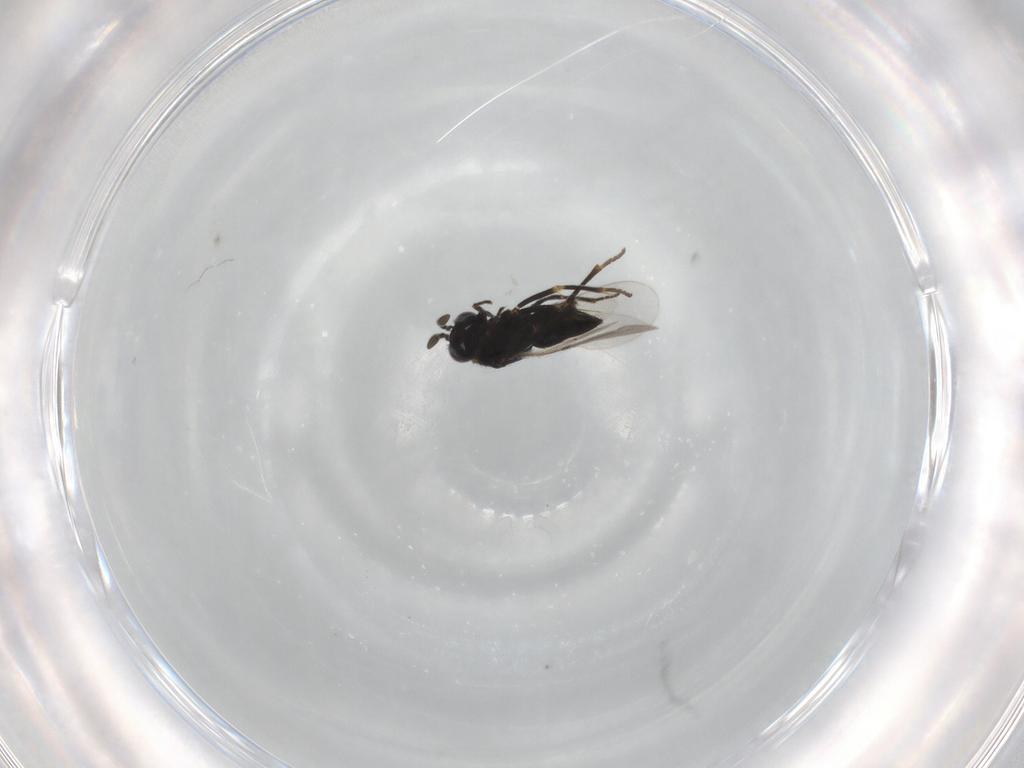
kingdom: Animalia
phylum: Arthropoda
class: Insecta
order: Hymenoptera
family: Encyrtidae
